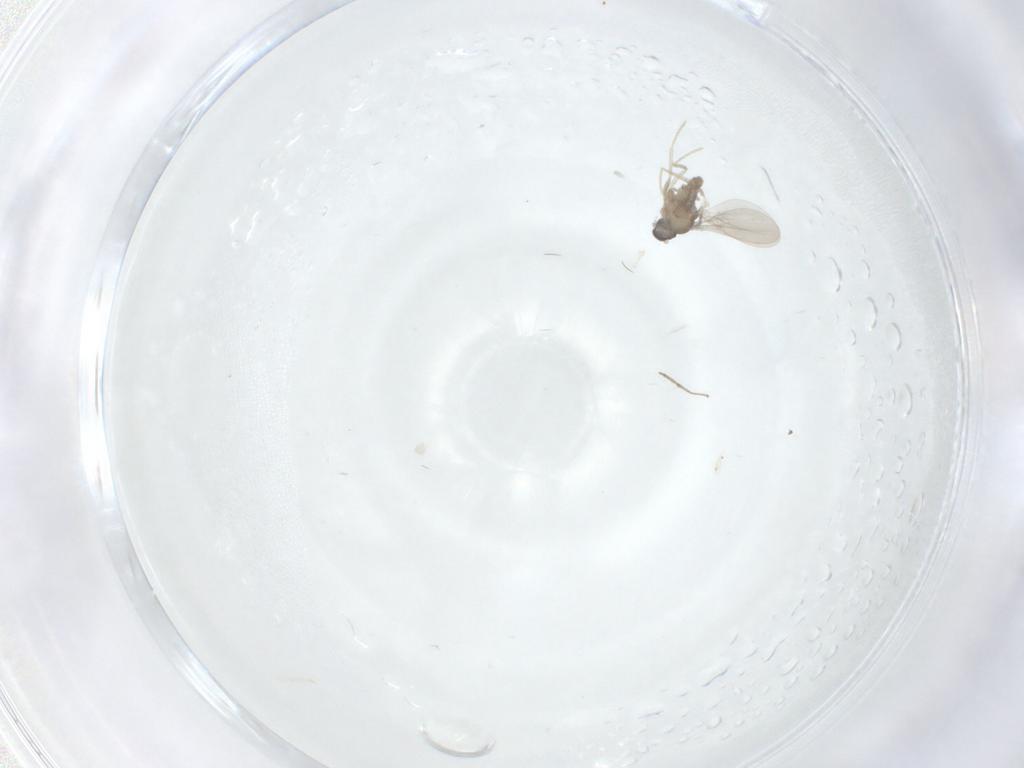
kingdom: Animalia
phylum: Arthropoda
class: Insecta
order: Diptera
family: Cecidomyiidae
